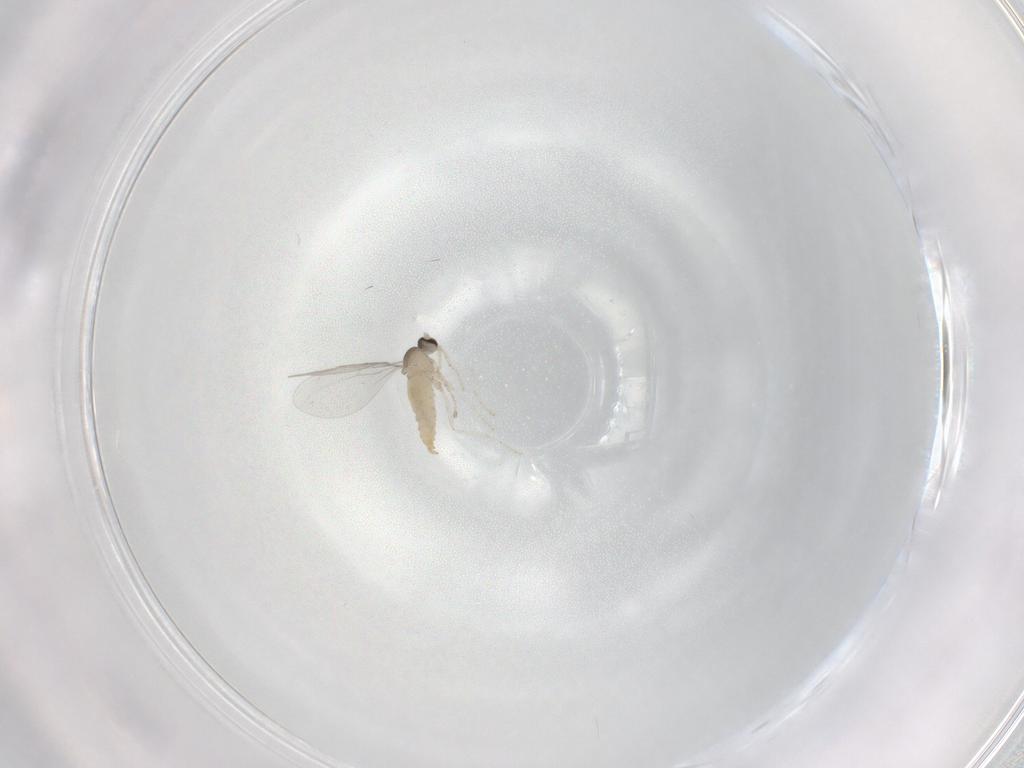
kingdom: Animalia
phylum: Arthropoda
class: Insecta
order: Diptera
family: Cecidomyiidae
